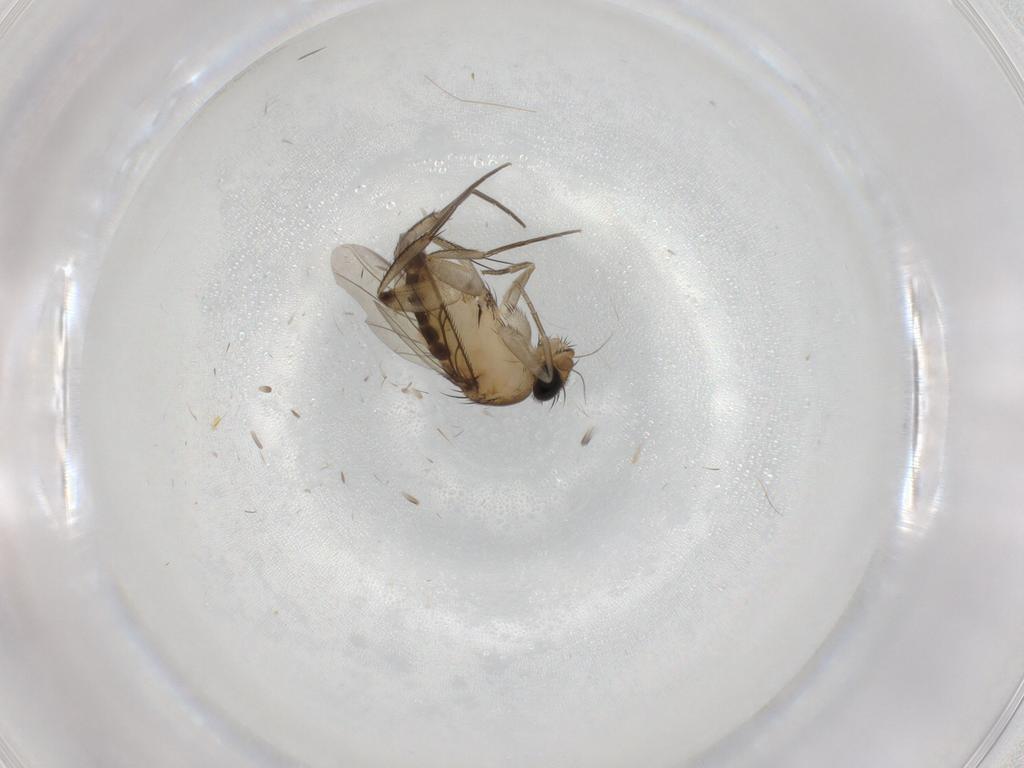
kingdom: Animalia
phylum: Arthropoda
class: Insecta
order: Diptera
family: Phoridae
